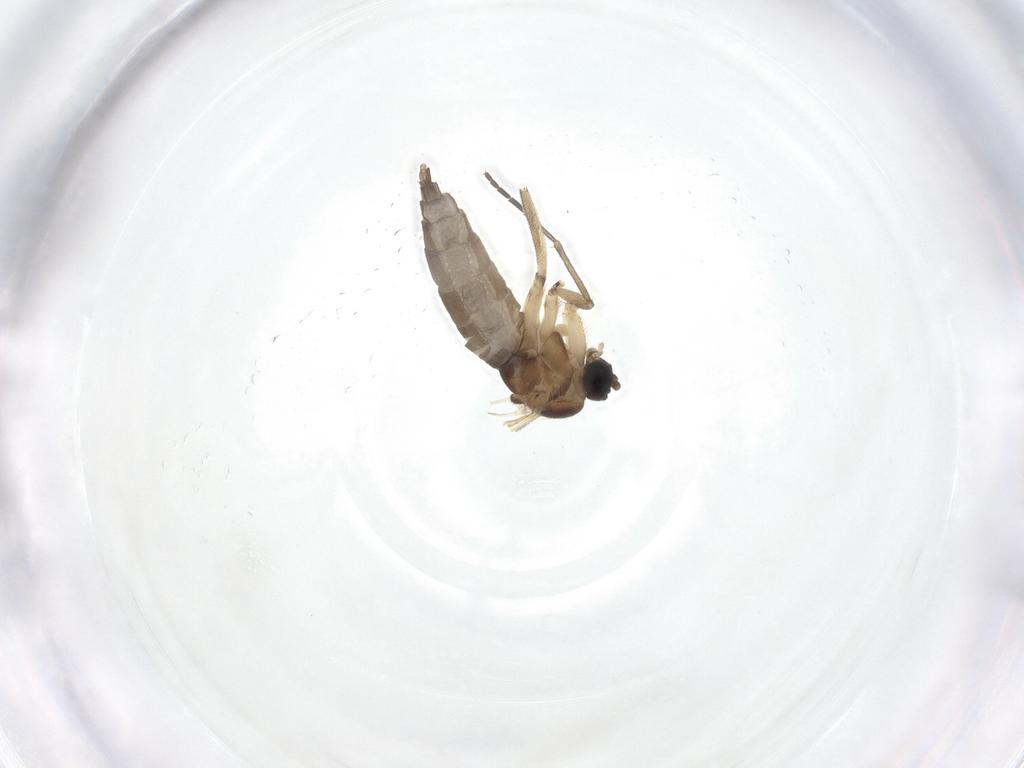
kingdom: Animalia
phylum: Arthropoda
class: Insecta
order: Diptera
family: Sciaridae
